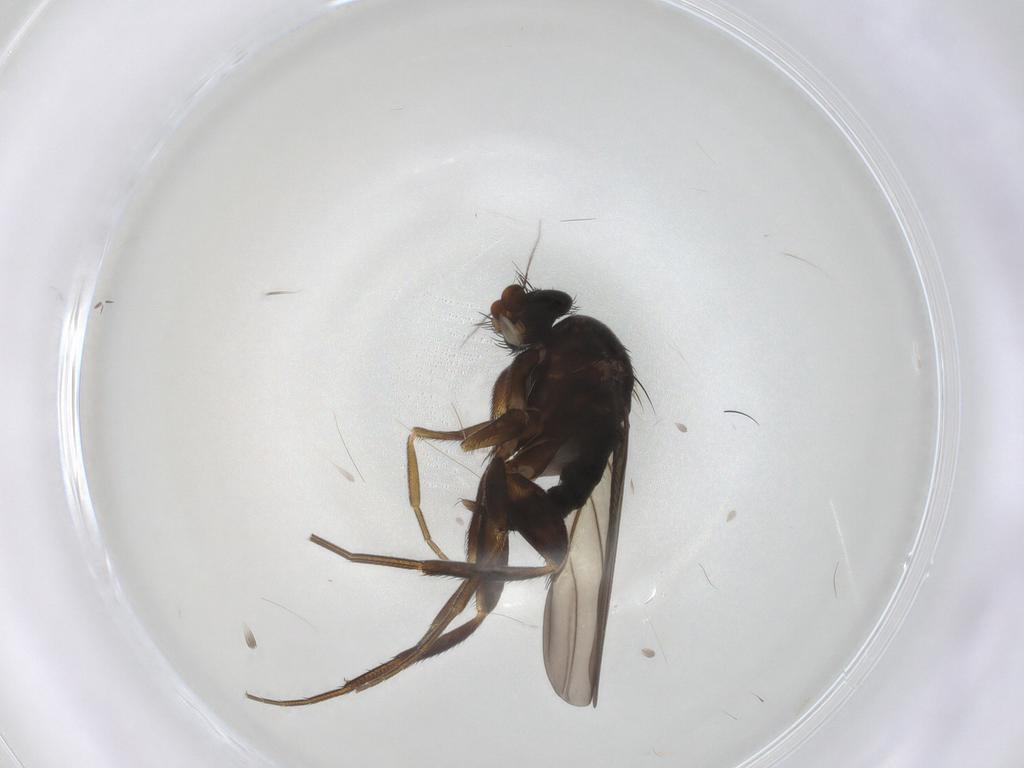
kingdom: Animalia
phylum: Arthropoda
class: Insecta
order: Diptera
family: Phoridae
